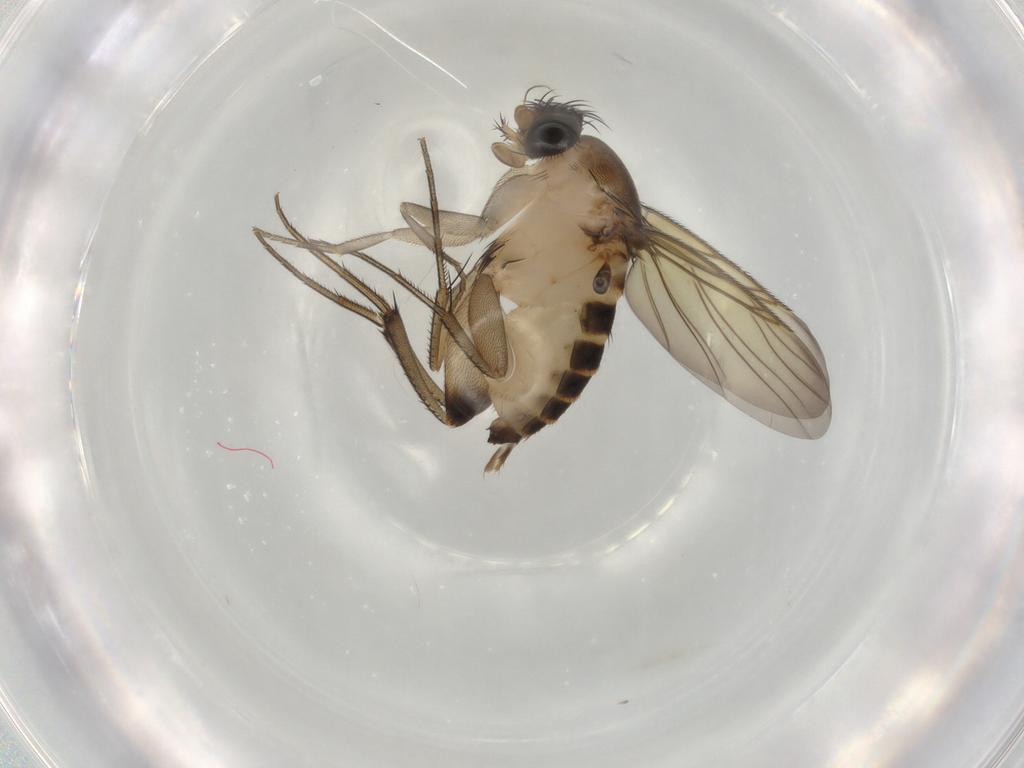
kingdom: Animalia
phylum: Arthropoda
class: Insecta
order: Diptera
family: Phoridae
